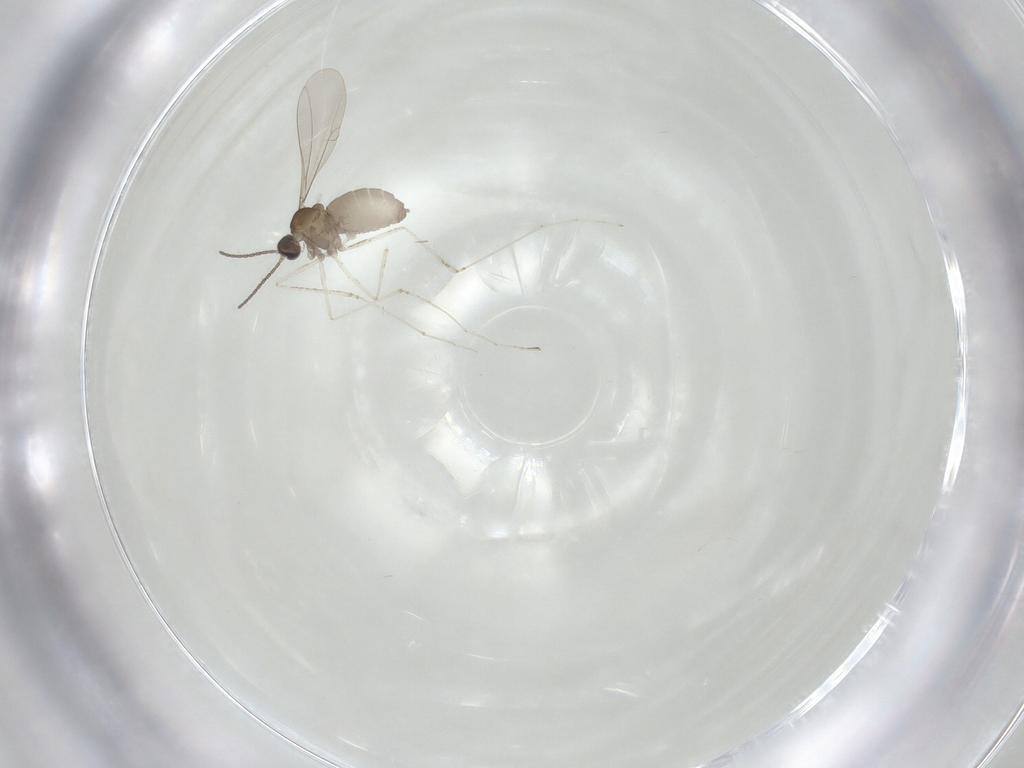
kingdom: Animalia
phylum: Arthropoda
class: Insecta
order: Diptera
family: Cecidomyiidae
